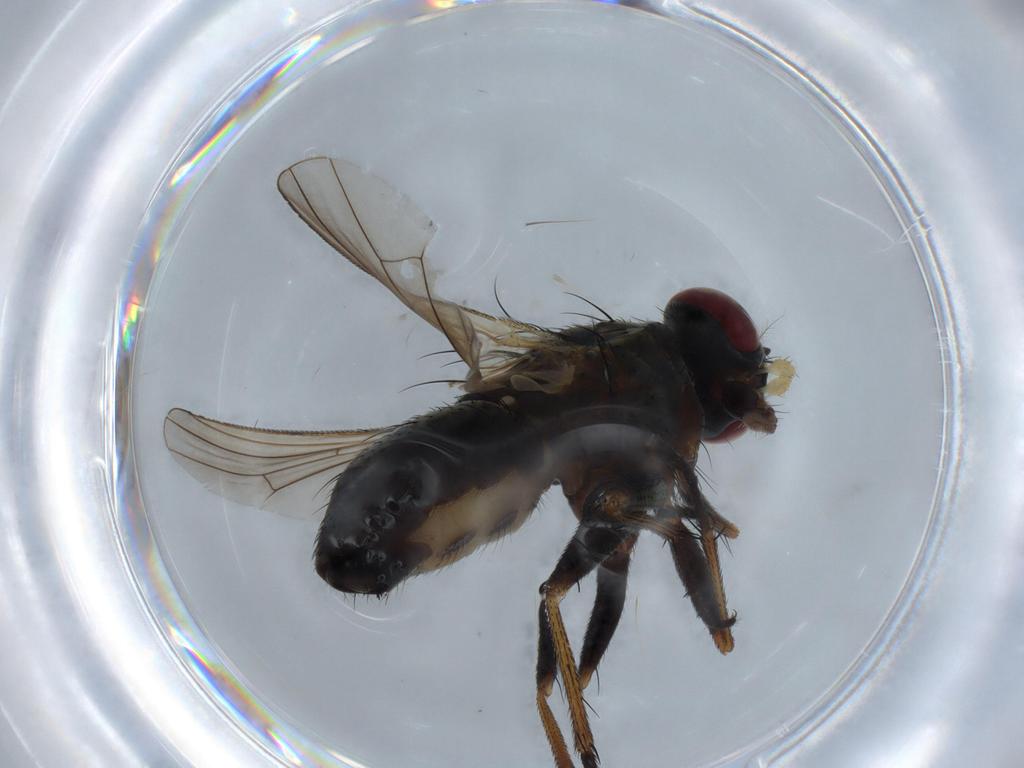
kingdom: Animalia
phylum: Arthropoda
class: Insecta
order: Diptera
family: Muscidae
